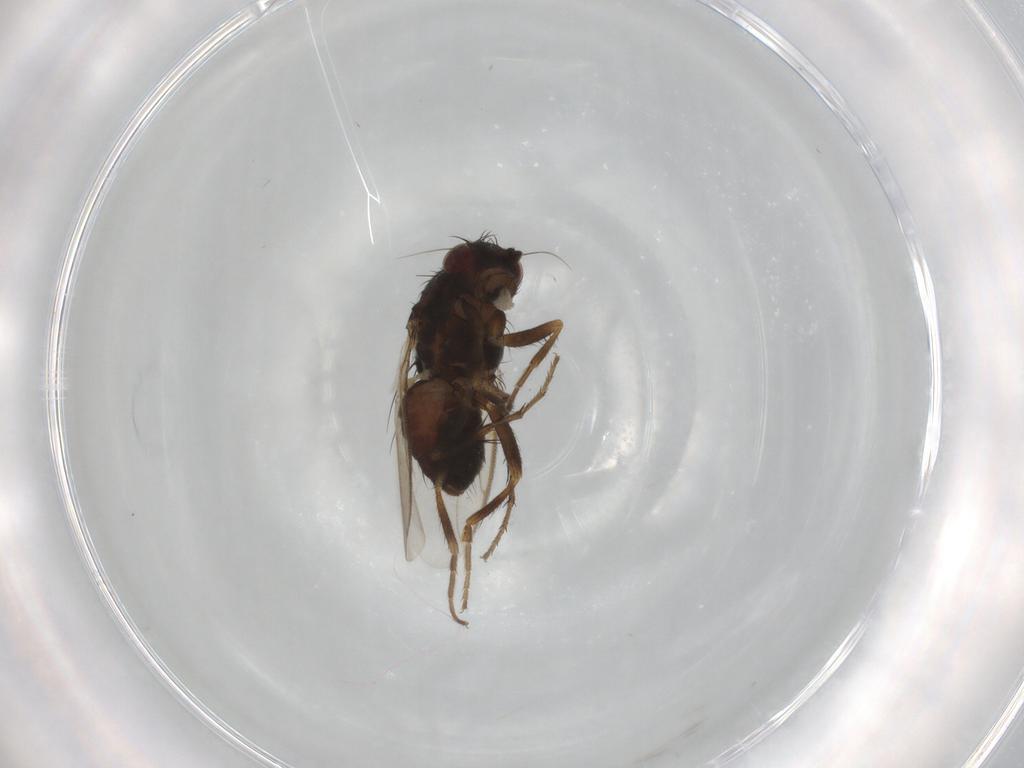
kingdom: Animalia
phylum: Arthropoda
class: Insecta
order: Diptera
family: Sphaeroceridae
